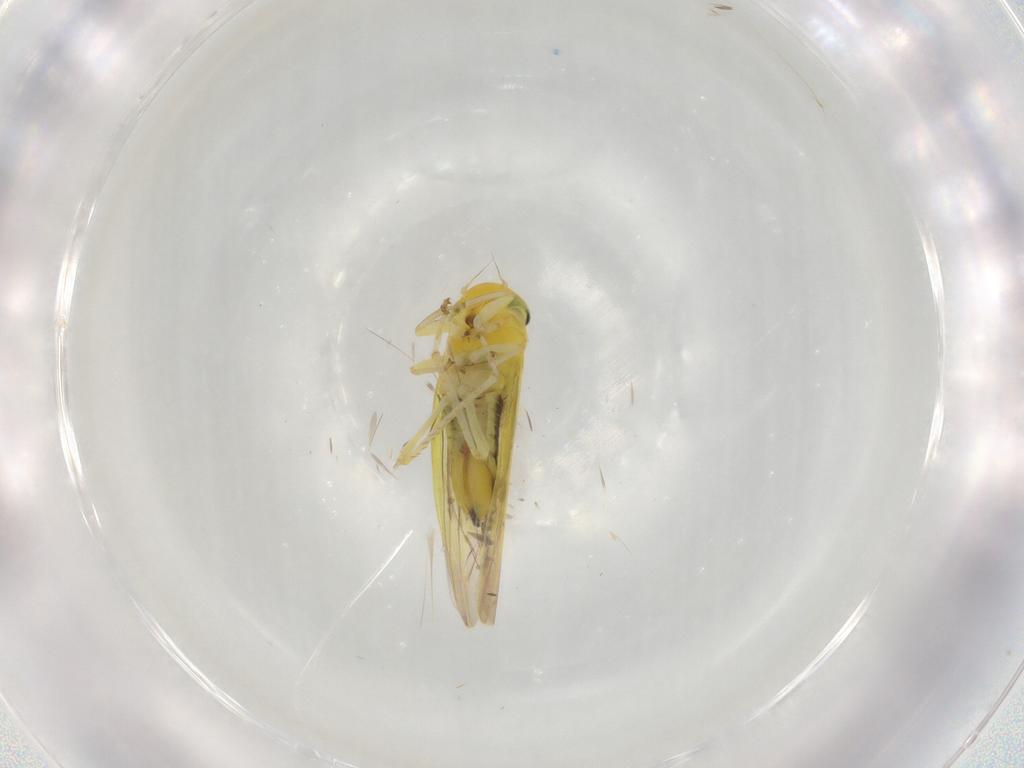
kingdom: Animalia
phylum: Arthropoda
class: Insecta
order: Hemiptera
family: Cicadellidae
